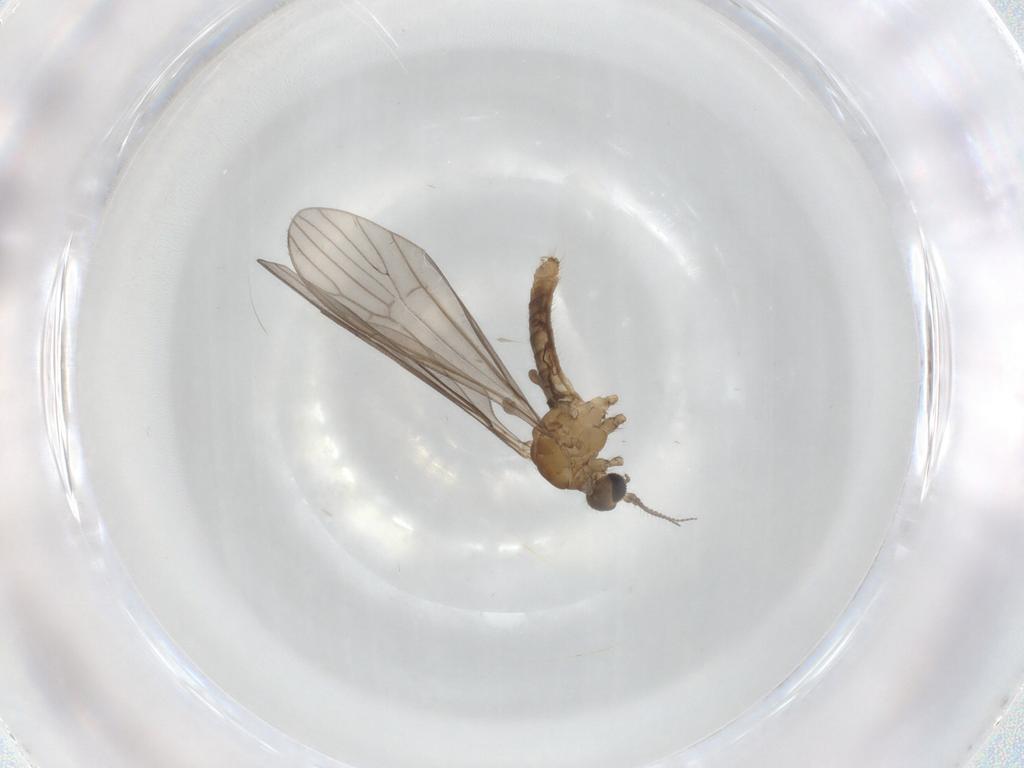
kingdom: Animalia
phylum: Arthropoda
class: Insecta
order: Diptera
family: Limoniidae
